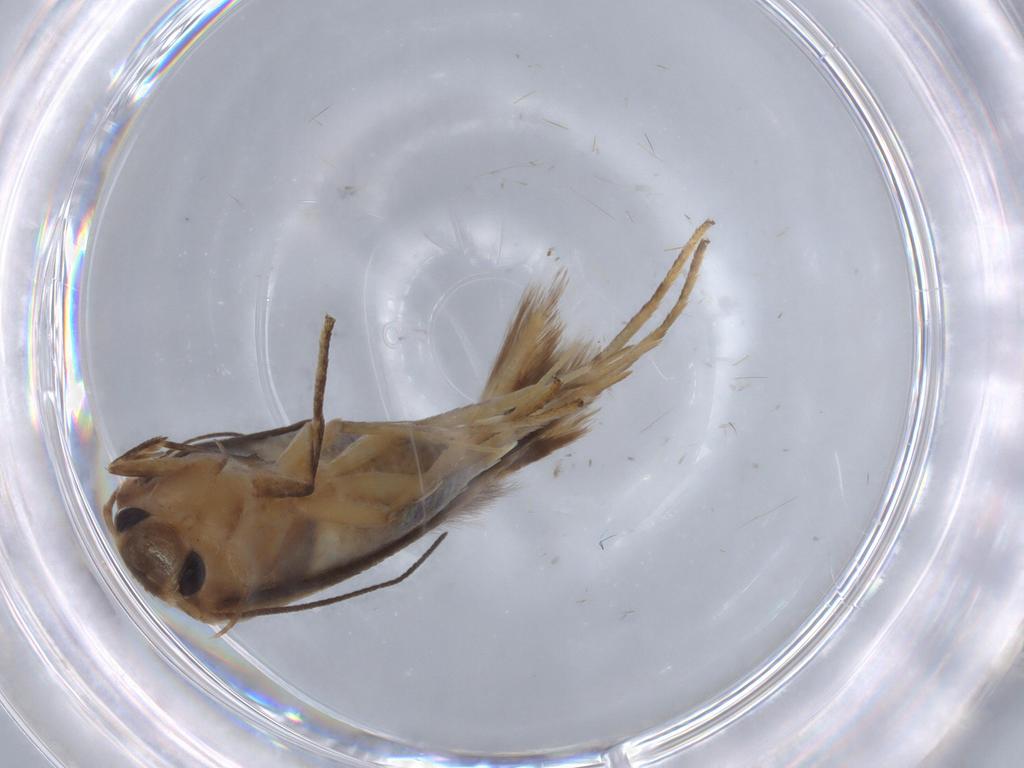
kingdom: Animalia
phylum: Arthropoda
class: Insecta
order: Lepidoptera
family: Stathmopodidae
